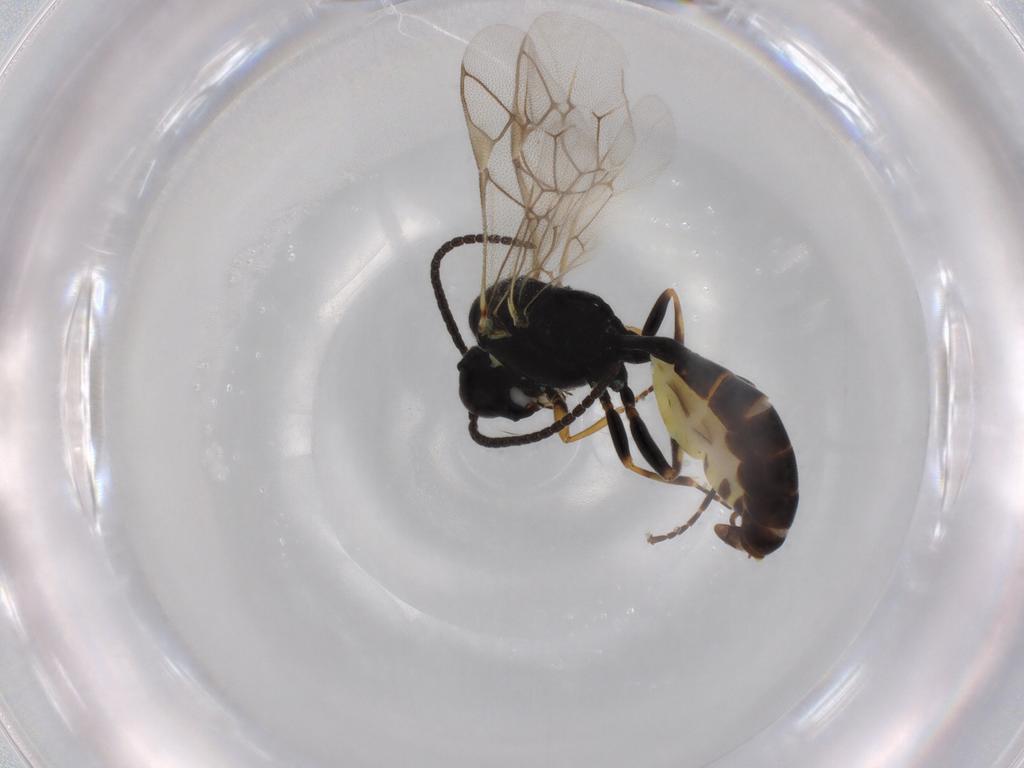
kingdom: Animalia
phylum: Arthropoda
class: Insecta
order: Hymenoptera
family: Ichneumonidae
